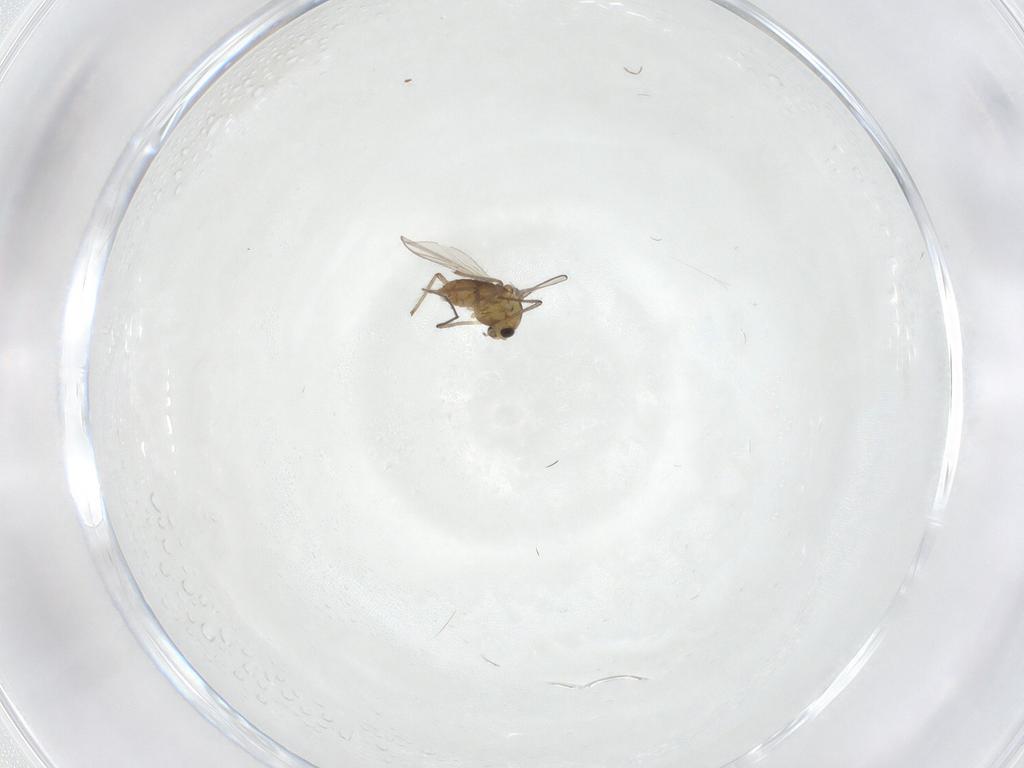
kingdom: Animalia
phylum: Arthropoda
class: Insecta
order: Diptera
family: Chironomidae
